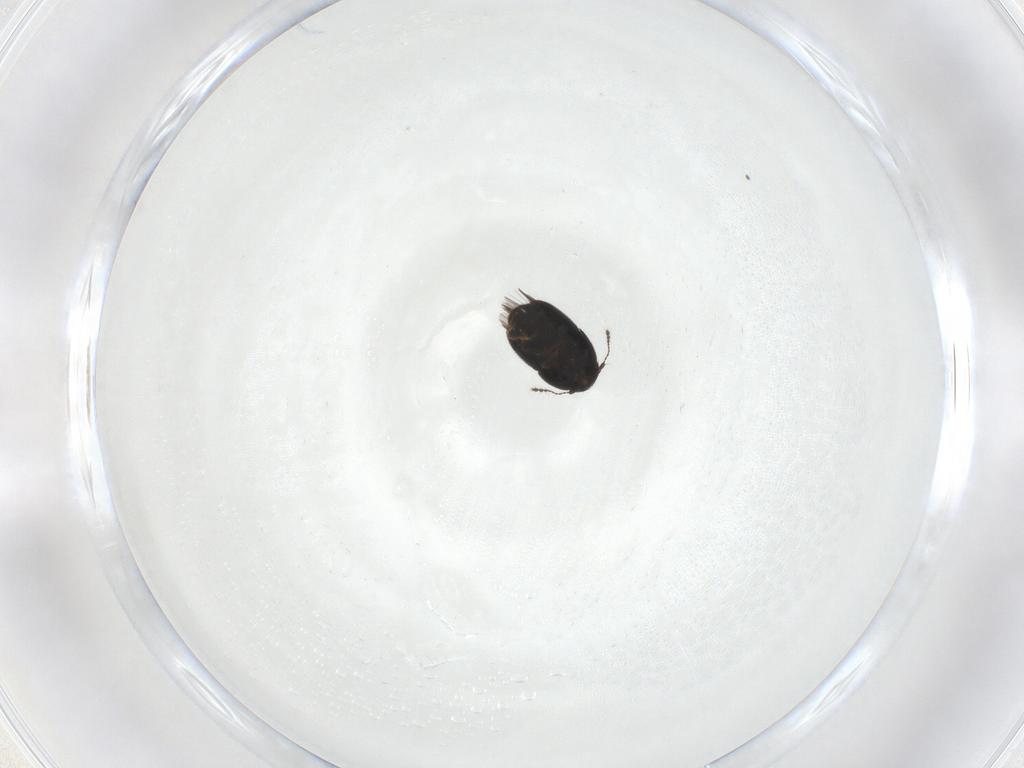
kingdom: Animalia
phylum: Arthropoda
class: Insecta
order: Coleoptera
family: Ptiliidae
